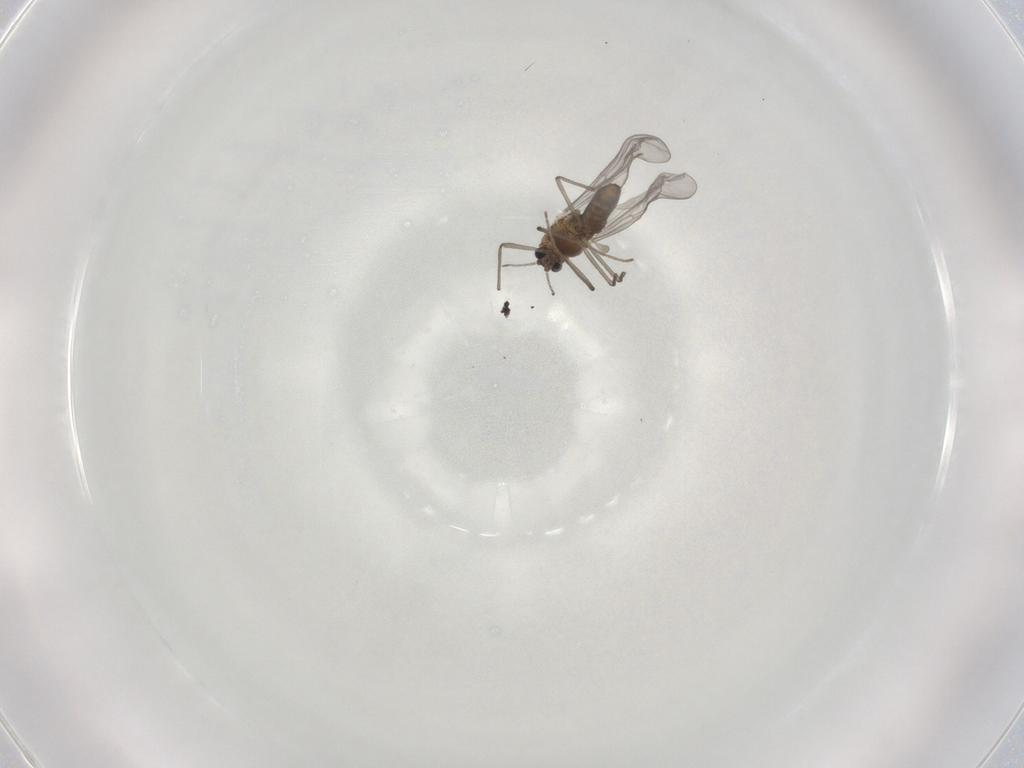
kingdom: Animalia
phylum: Arthropoda
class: Insecta
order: Diptera
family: Chironomidae
